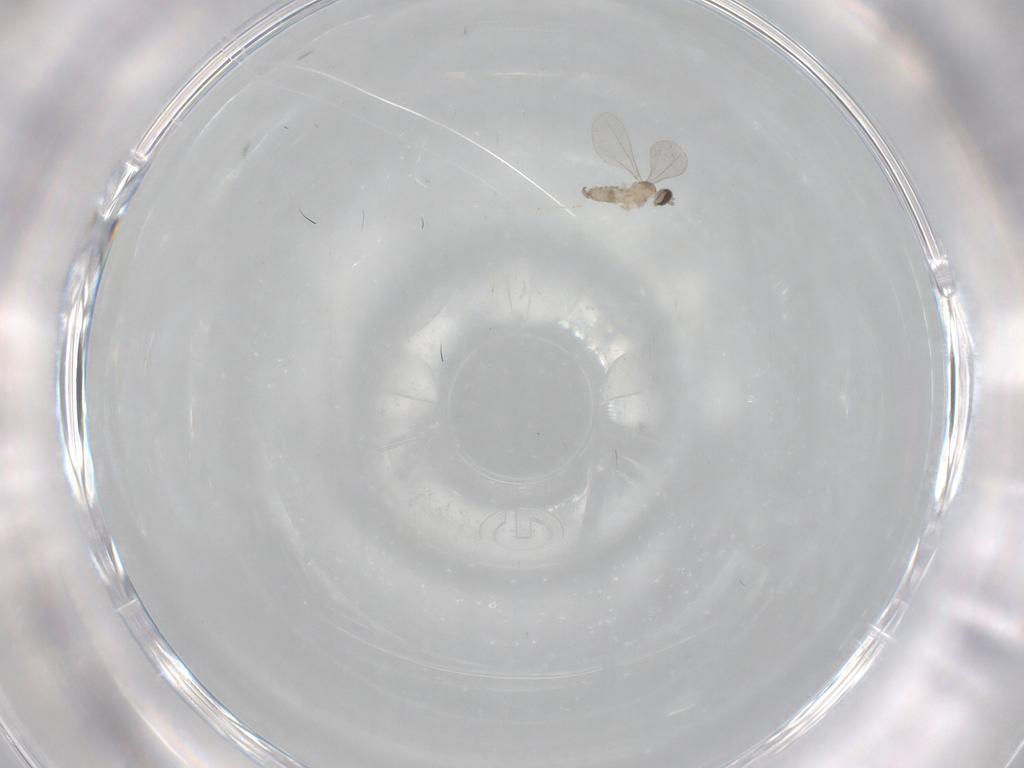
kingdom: Animalia
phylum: Arthropoda
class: Insecta
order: Diptera
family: Cecidomyiidae
